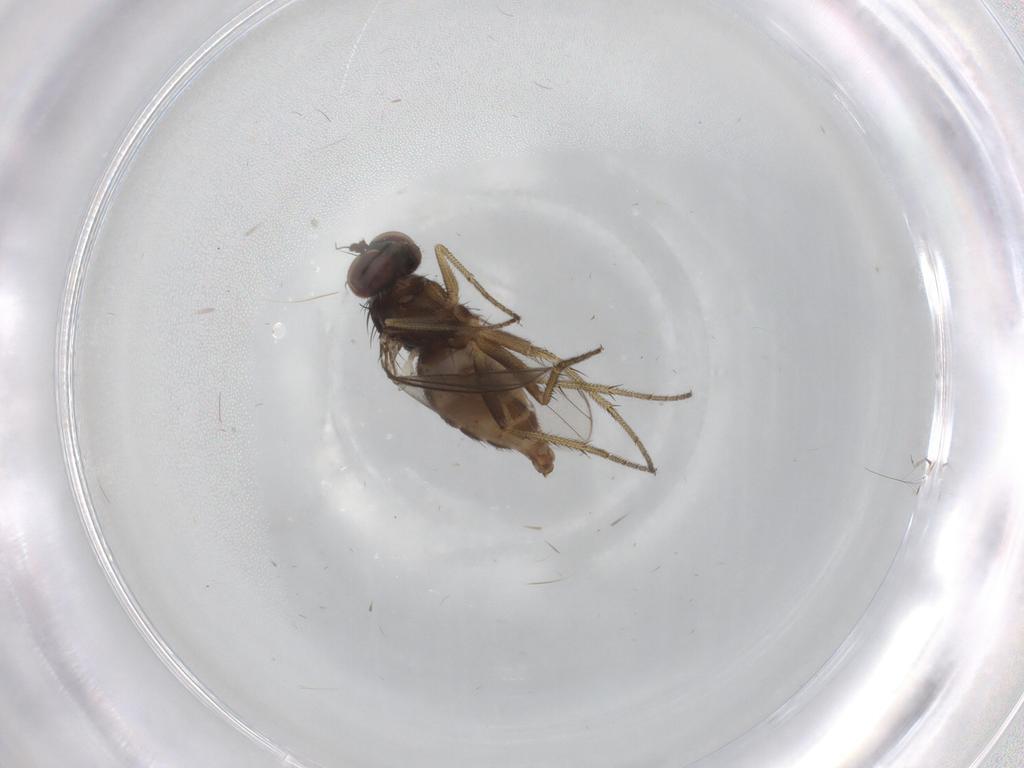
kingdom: Animalia
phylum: Arthropoda
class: Insecta
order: Diptera
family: Dolichopodidae
